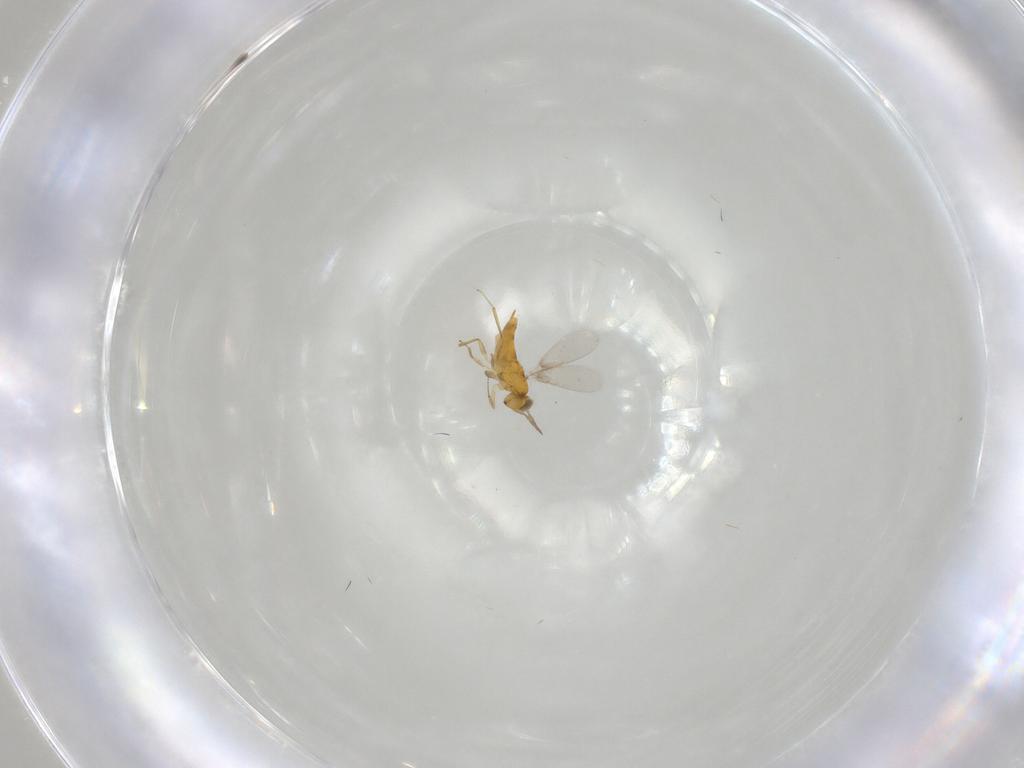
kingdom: Animalia
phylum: Arthropoda
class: Insecta
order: Hymenoptera
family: Aphelinidae
